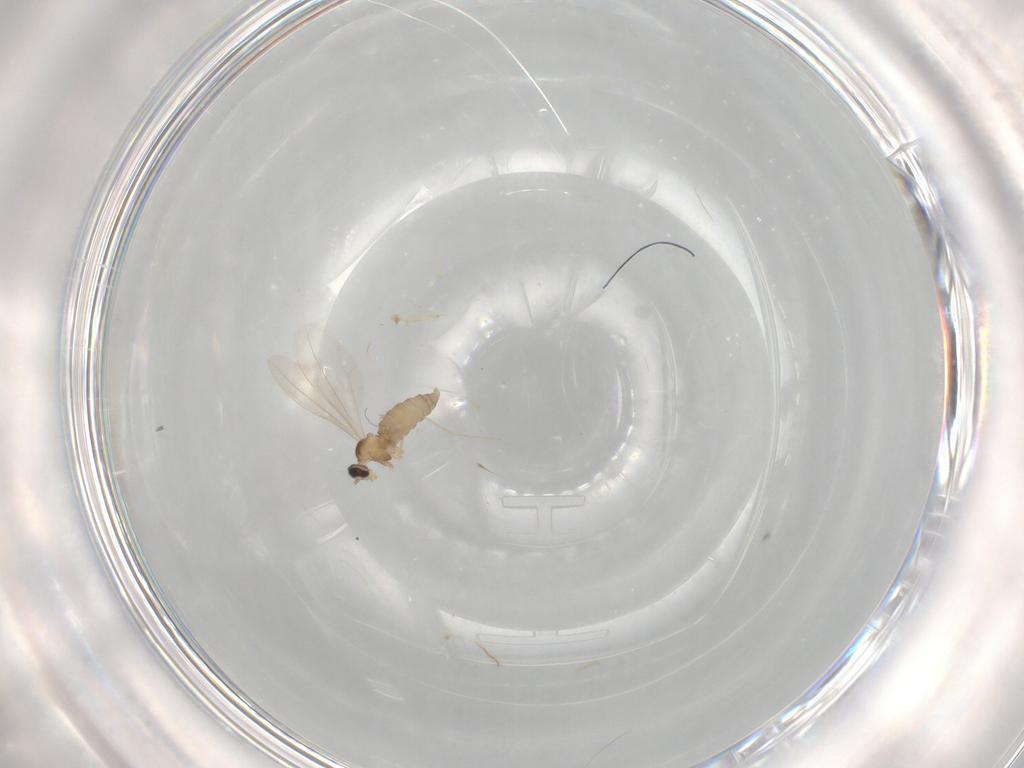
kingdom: Animalia
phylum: Arthropoda
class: Insecta
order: Diptera
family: Cecidomyiidae
